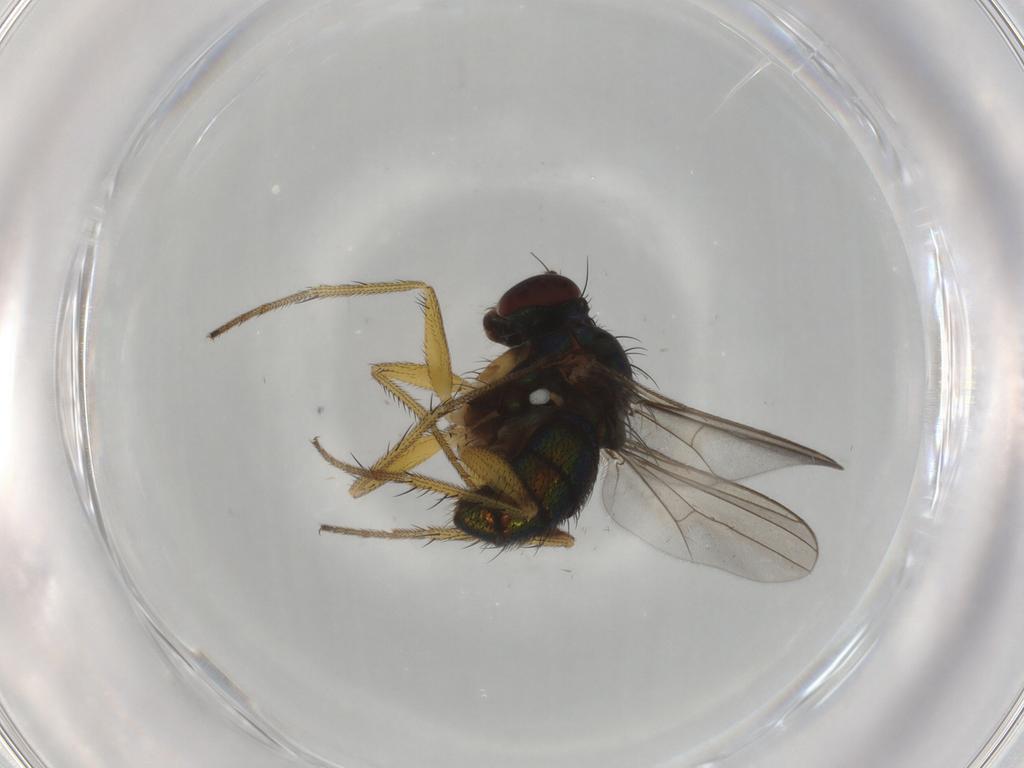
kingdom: Animalia
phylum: Arthropoda
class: Insecta
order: Diptera
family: Dolichopodidae
